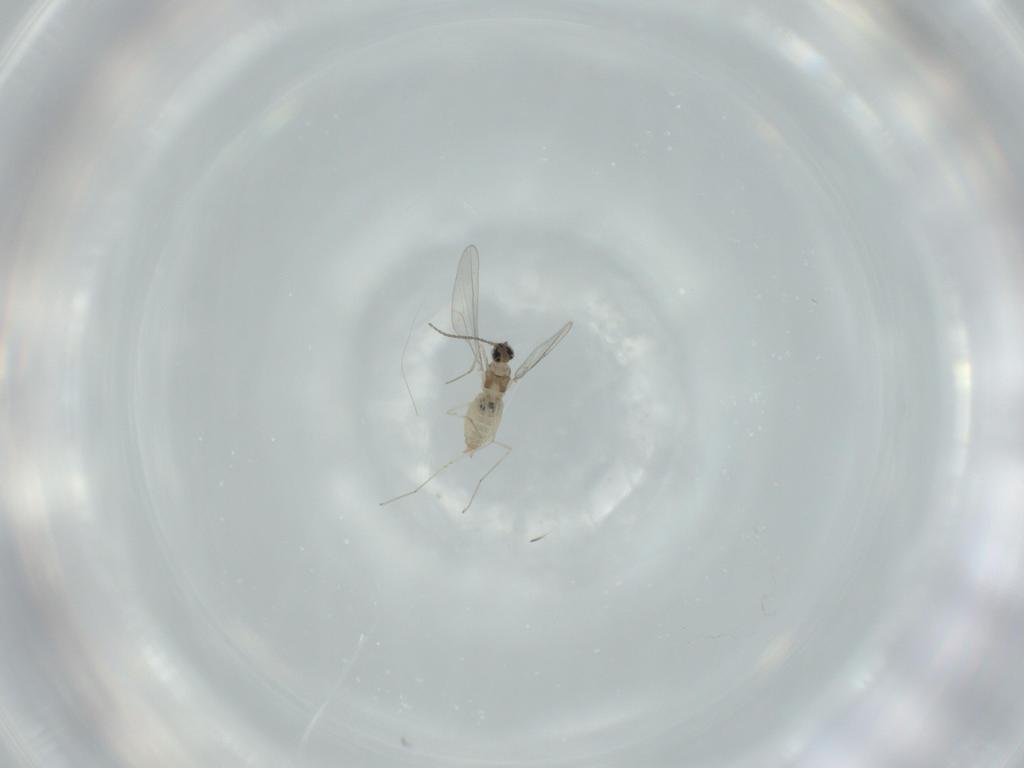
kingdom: Animalia
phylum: Arthropoda
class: Insecta
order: Diptera
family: Cecidomyiidae
